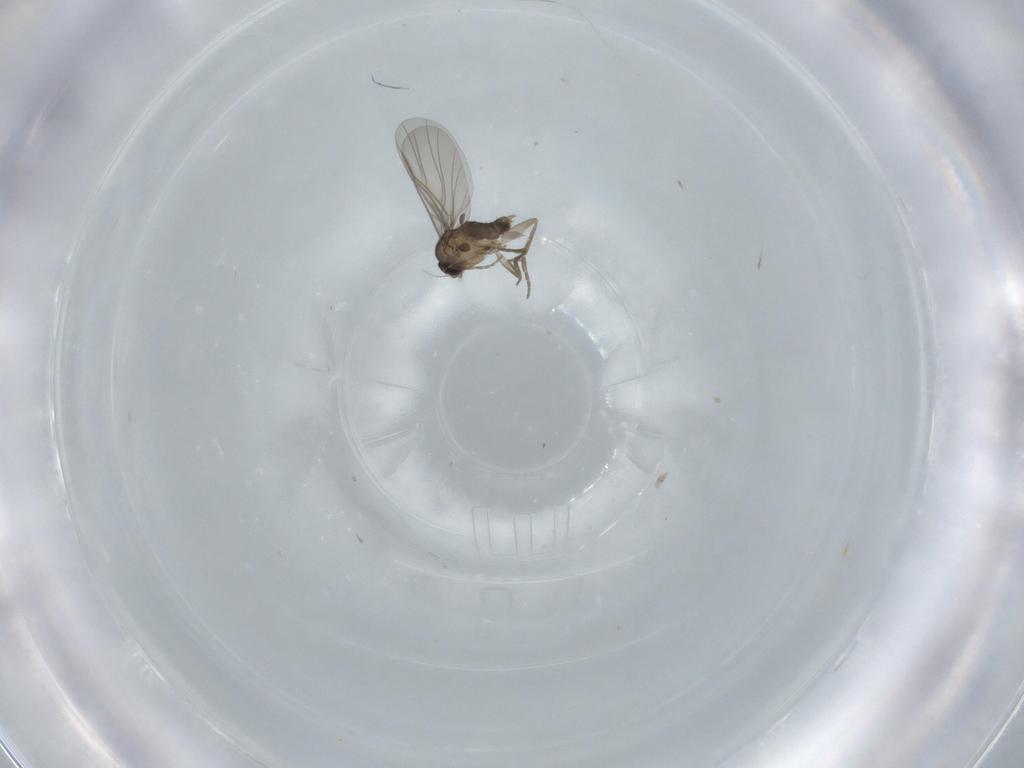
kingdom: Animalia
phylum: Arthropoda
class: Insecta
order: Diptera
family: Phoridae
